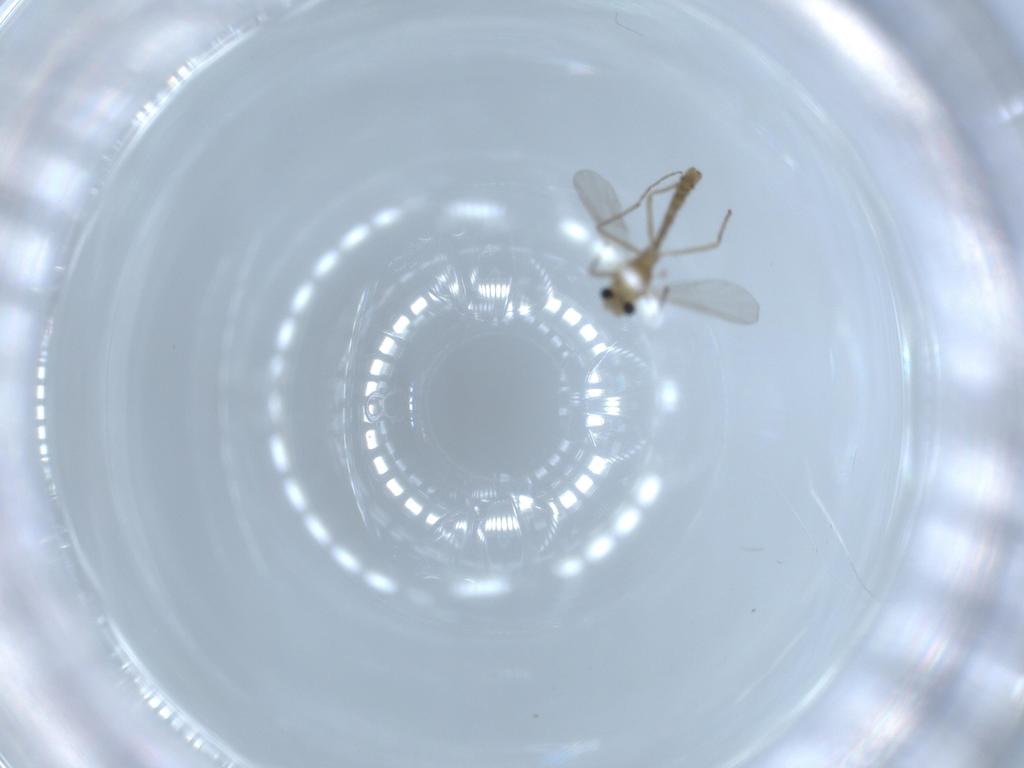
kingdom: Animalia
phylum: Arthropoda
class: Insecta
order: Diptera
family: Chironomidae
